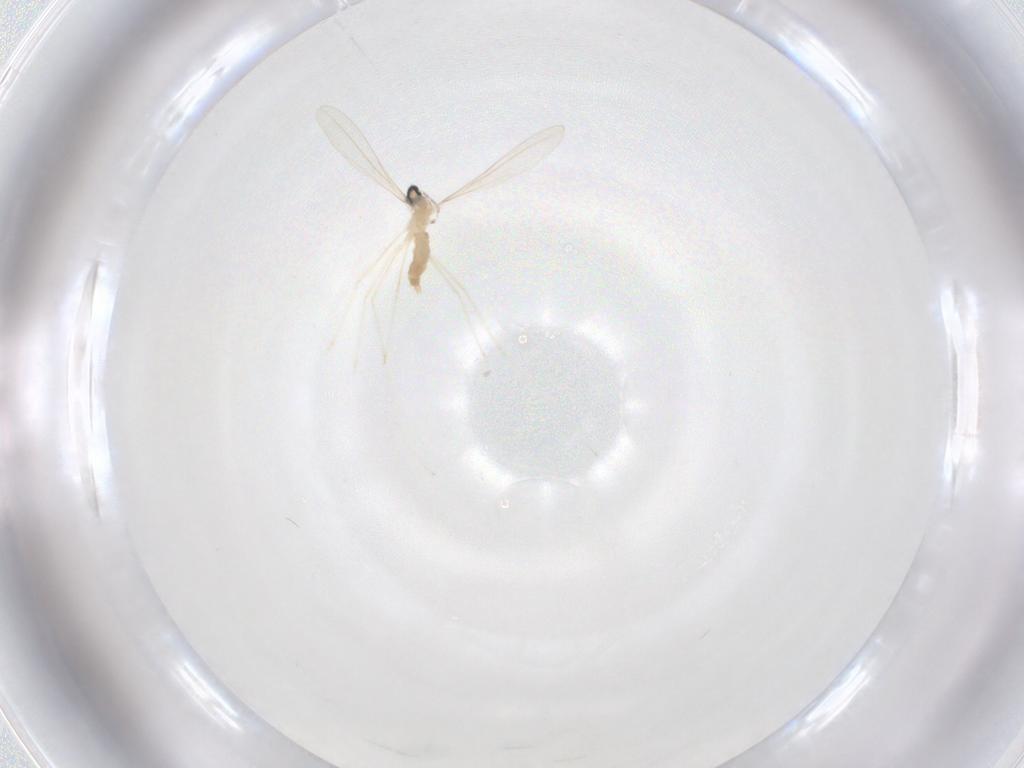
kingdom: Animalia
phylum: Arthropoda
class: Insecta
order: Diptera
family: Cecidomyiidae
